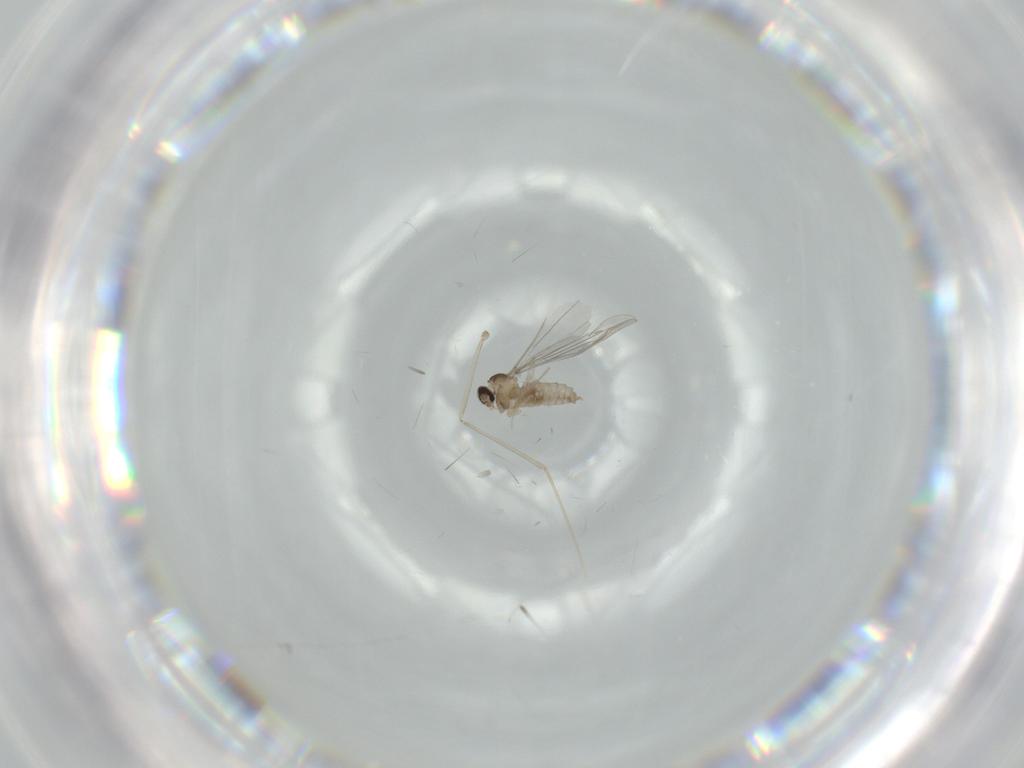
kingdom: Animalia
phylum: Arthropoda
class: Insecta
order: Diptera
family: Cecidomyiidae
